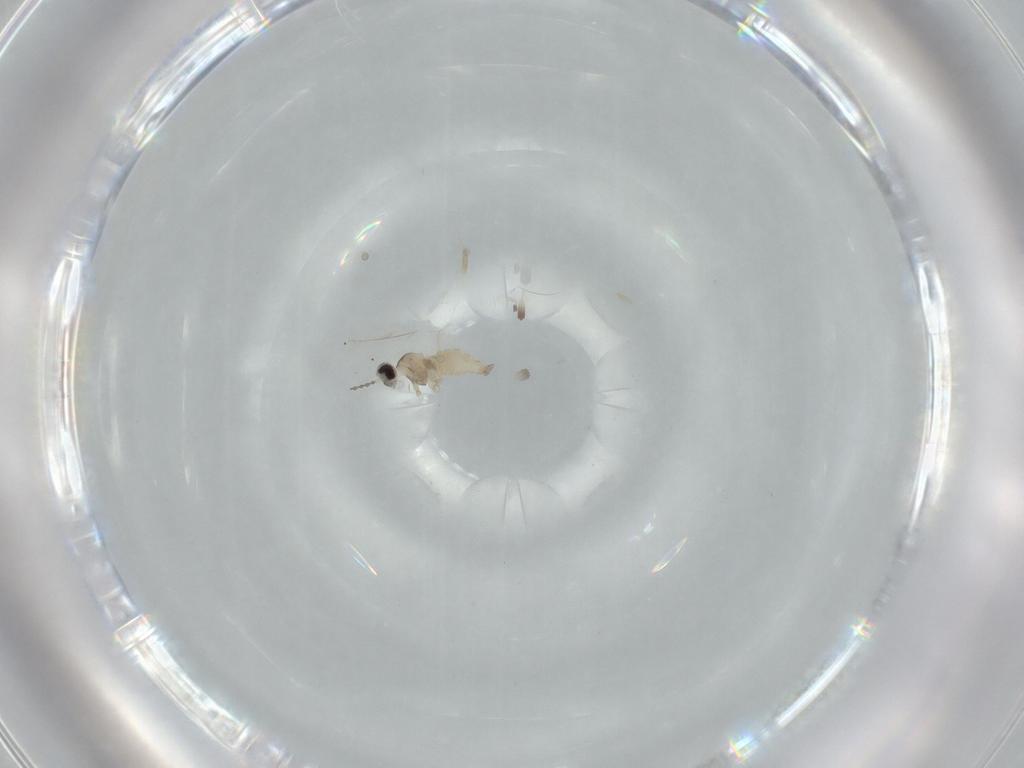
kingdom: Animalia
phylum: Arthropoda
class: Insecta
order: Diptera
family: Cecidomyiidae
